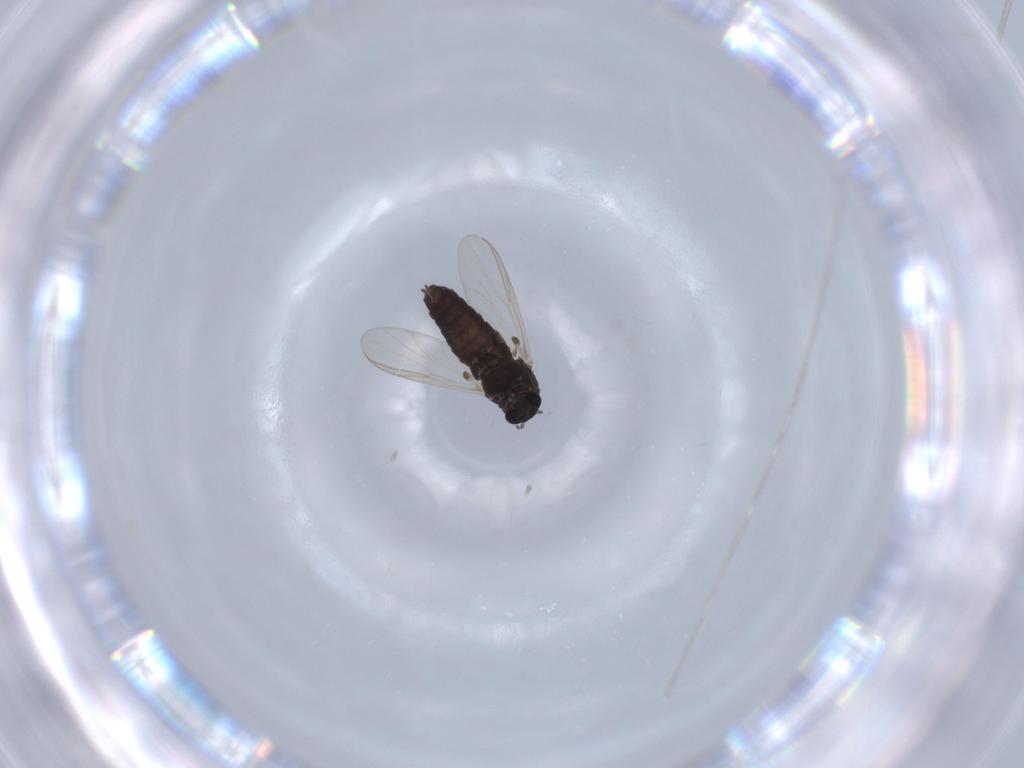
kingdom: Animalia
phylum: Arthropoda
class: Insecta
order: Diptera
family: Chironomidae
